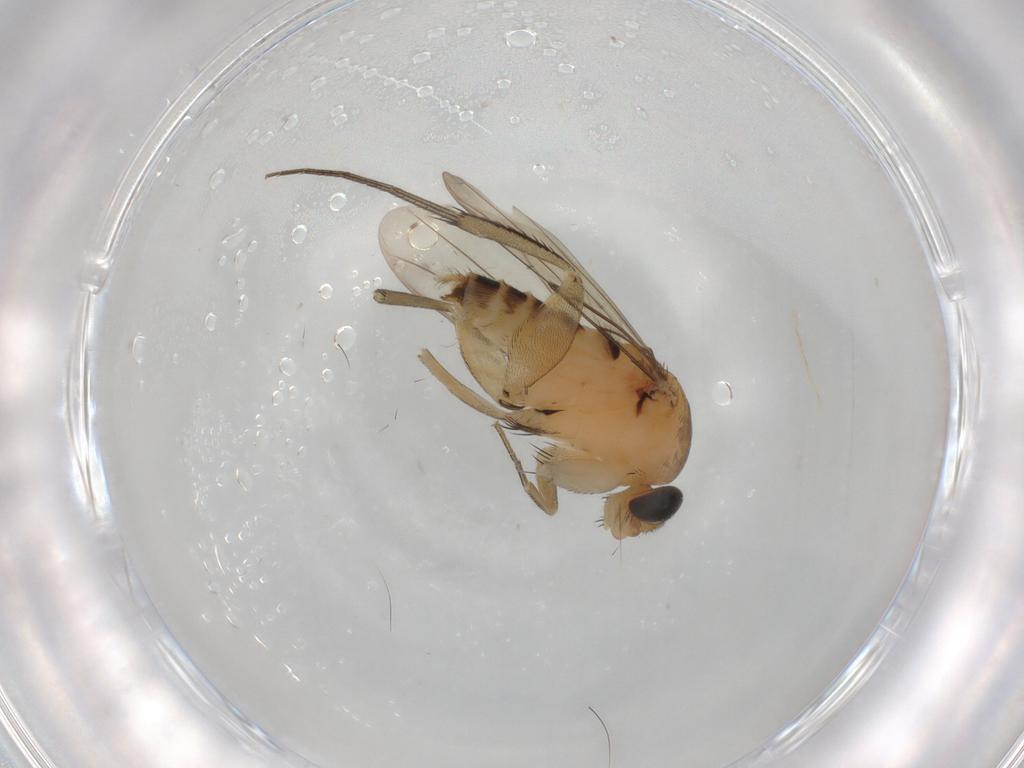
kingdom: Animalia
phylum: Arthropoda
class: Insecta
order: Diptera
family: Phoridae
